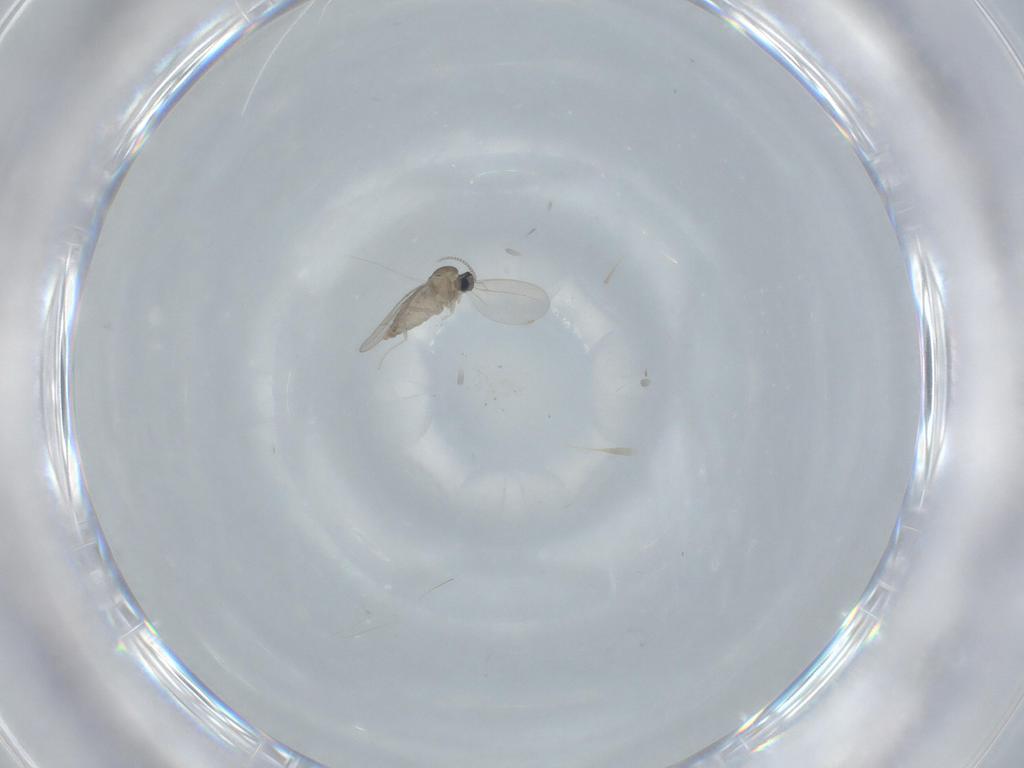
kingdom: Animalia
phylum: Arthropoda
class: Insecta
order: Diptera
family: Cecidomyiidae
